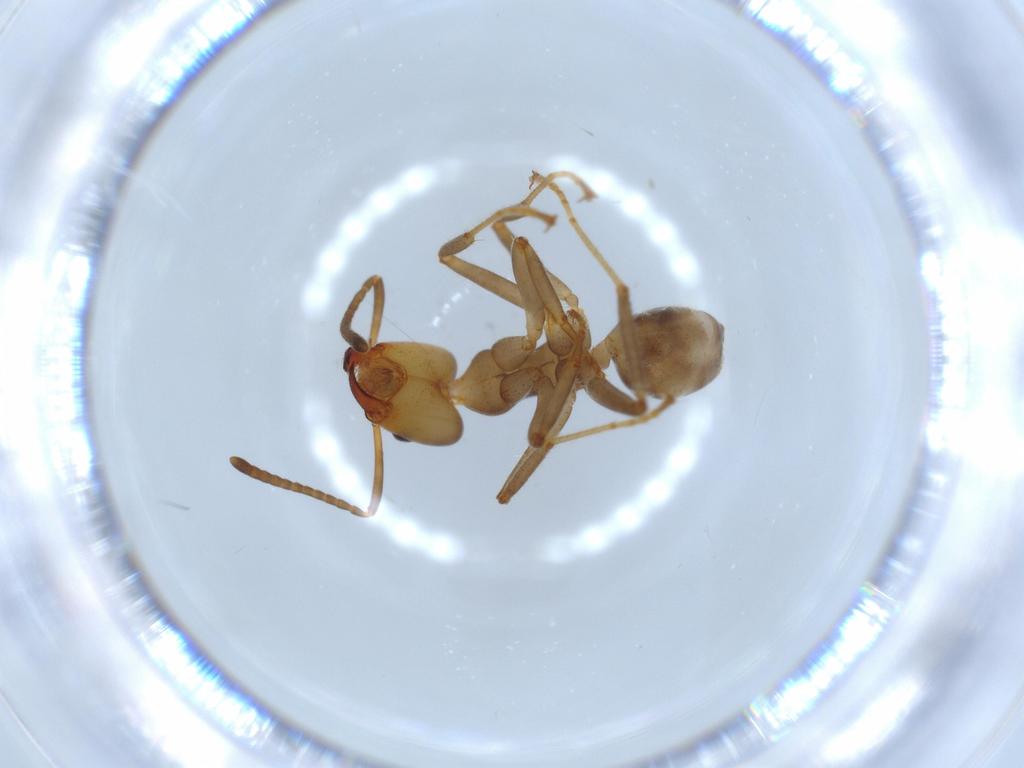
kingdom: Animalia
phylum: Arthropoda
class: Insecta
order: Hymenoptera
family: Formicidae
